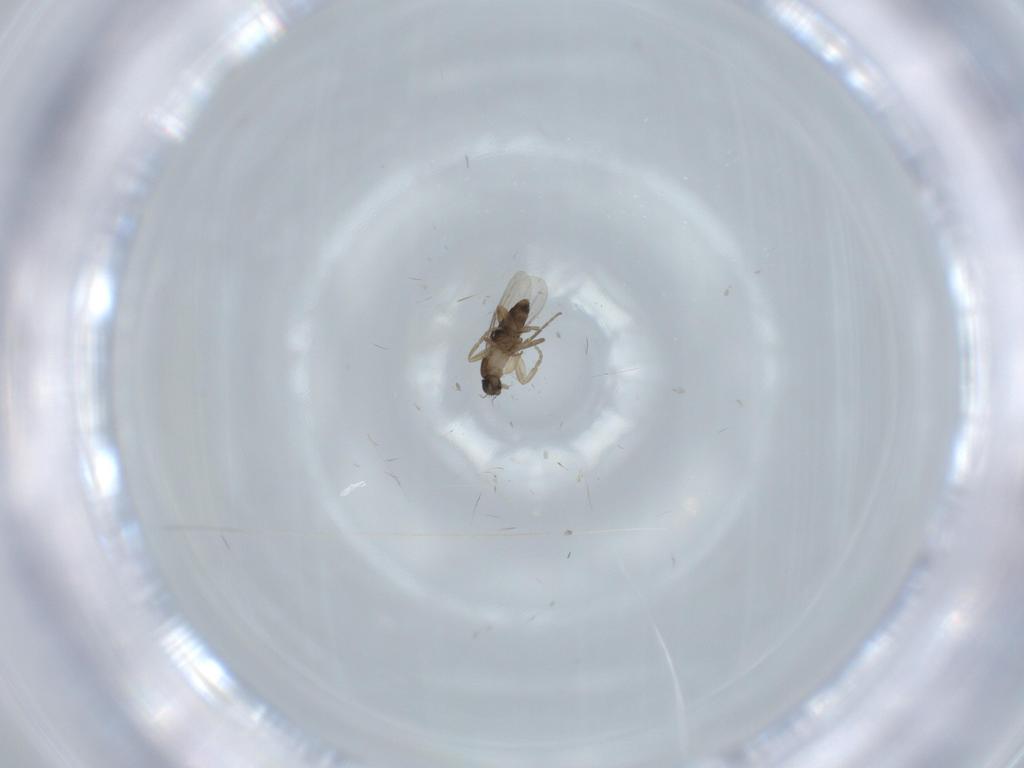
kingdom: Animalia
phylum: Arthropoda
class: Insecta
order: Diptera
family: Phoridae
